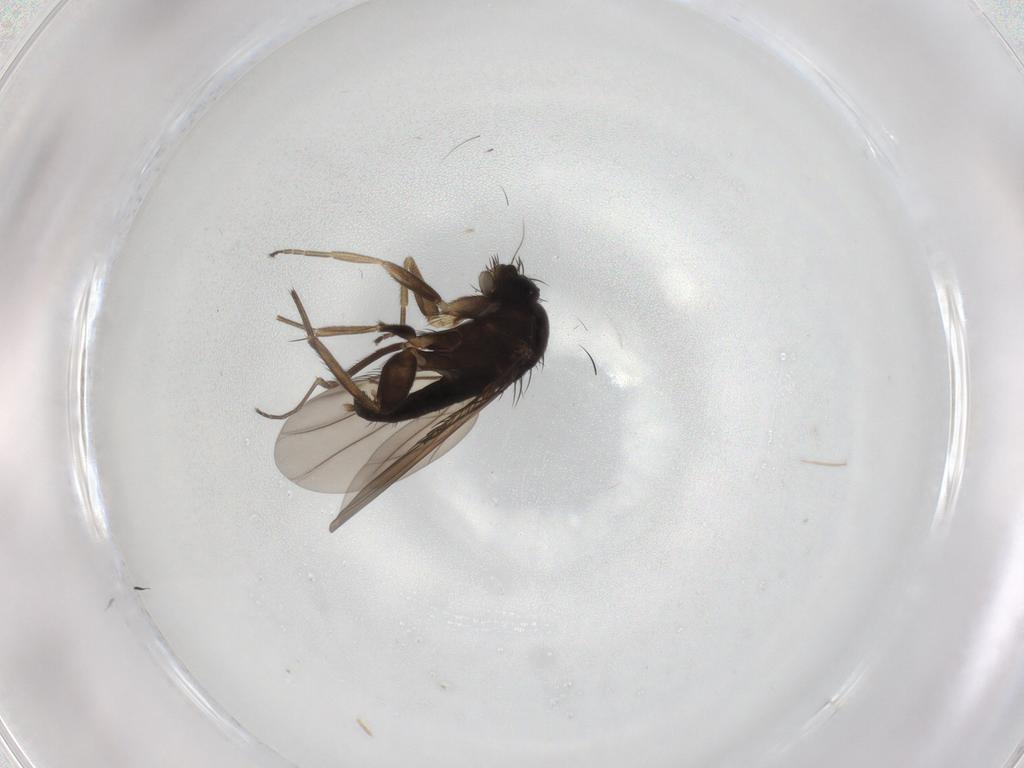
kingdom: Animalia
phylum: Arthropoda
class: Insecta
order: Diptera
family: Phoridae
